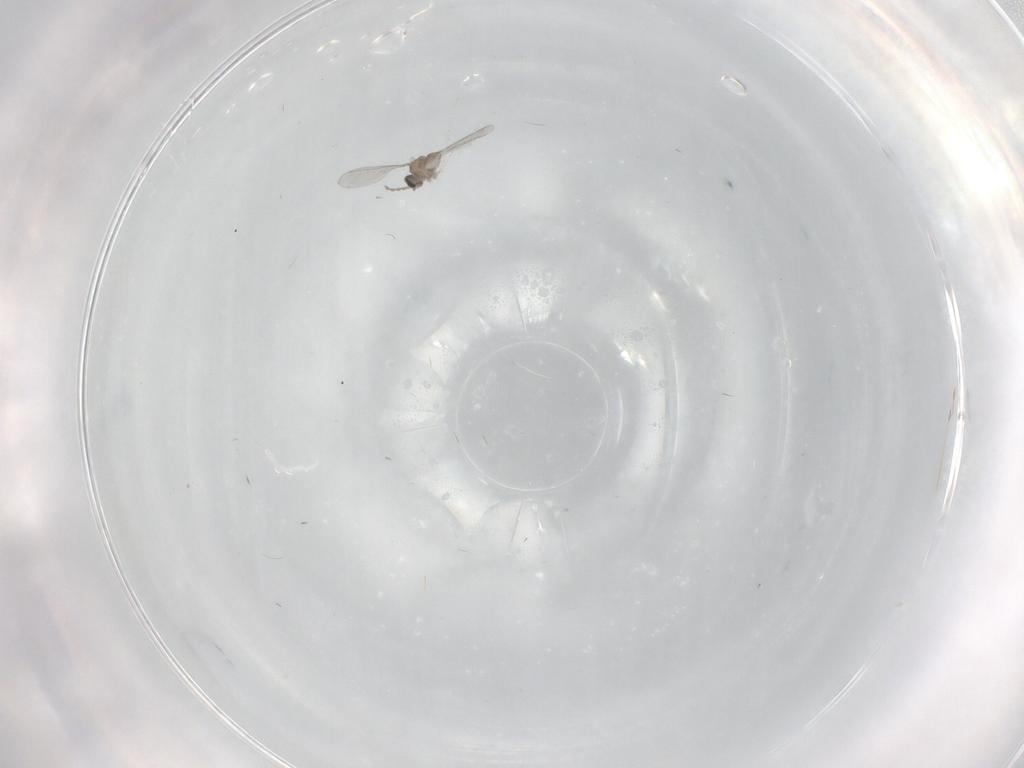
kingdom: Animalia
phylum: Arthropoda
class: Insecta
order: Diptera
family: Cecidomyiidae
